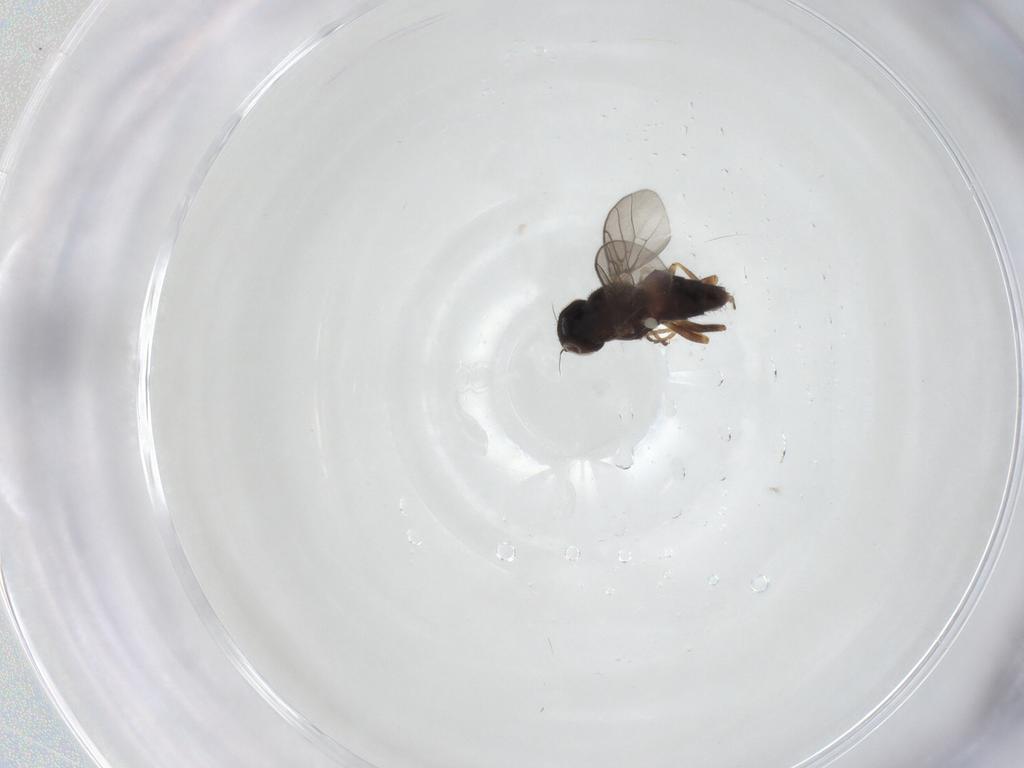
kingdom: Animalia
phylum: Arthropoda
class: Insecta
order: Diptera
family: Chloropidae
